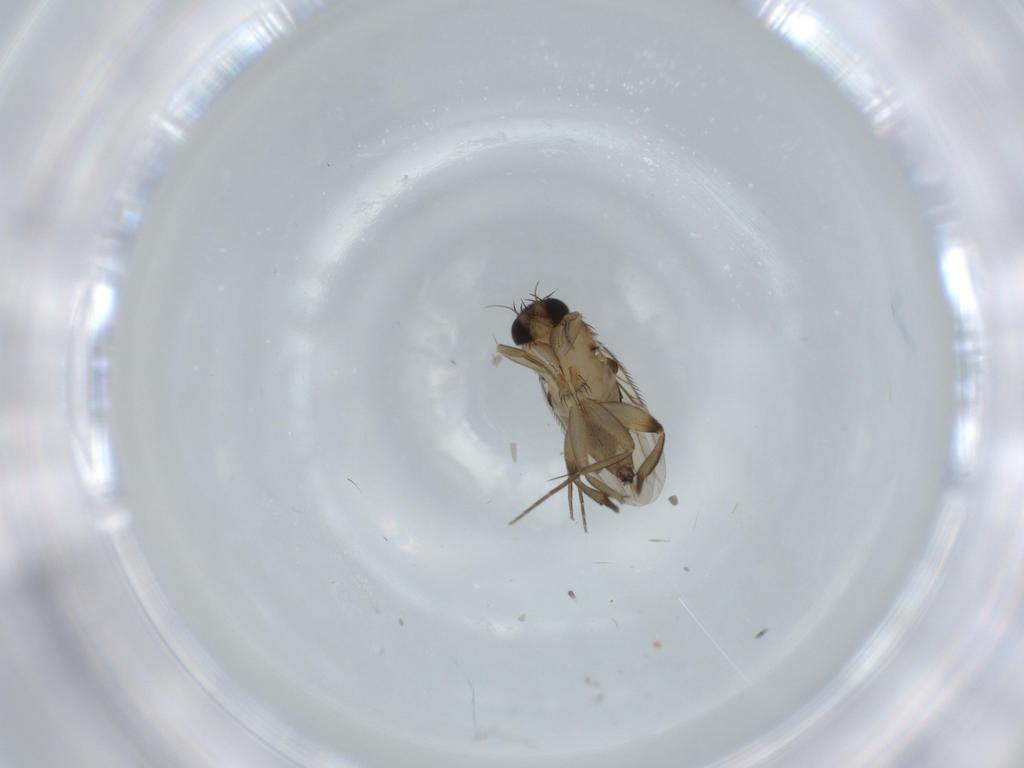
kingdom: Animalia
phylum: Arthropoda
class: Insecta
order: Diptera
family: Phoridae
